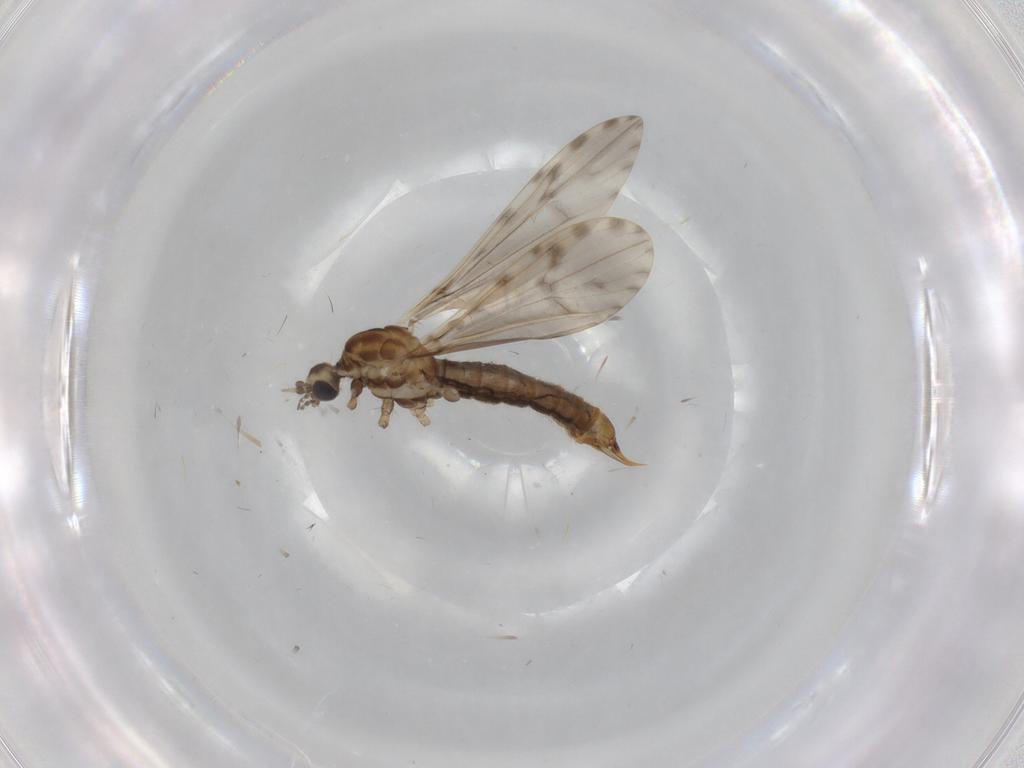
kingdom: Animalia
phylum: Arthropoda
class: Insecta
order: Diptera
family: Limoniidae
